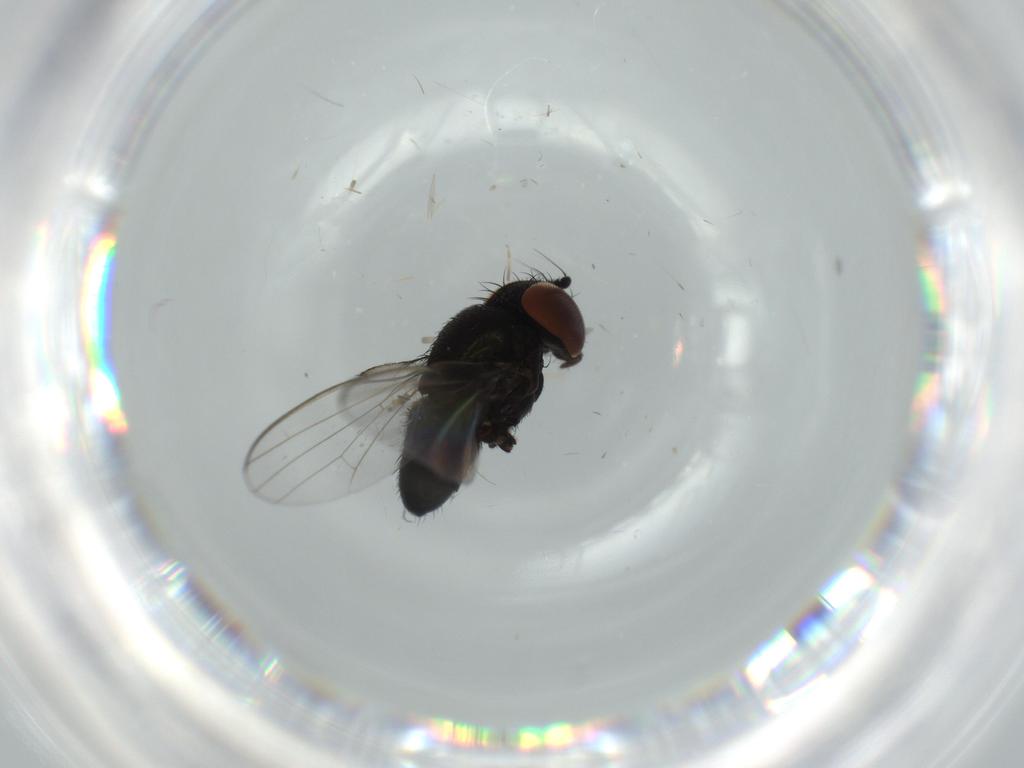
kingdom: Animalia
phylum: Arthropoda
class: Insecta
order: Diptera
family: Milichiidae
